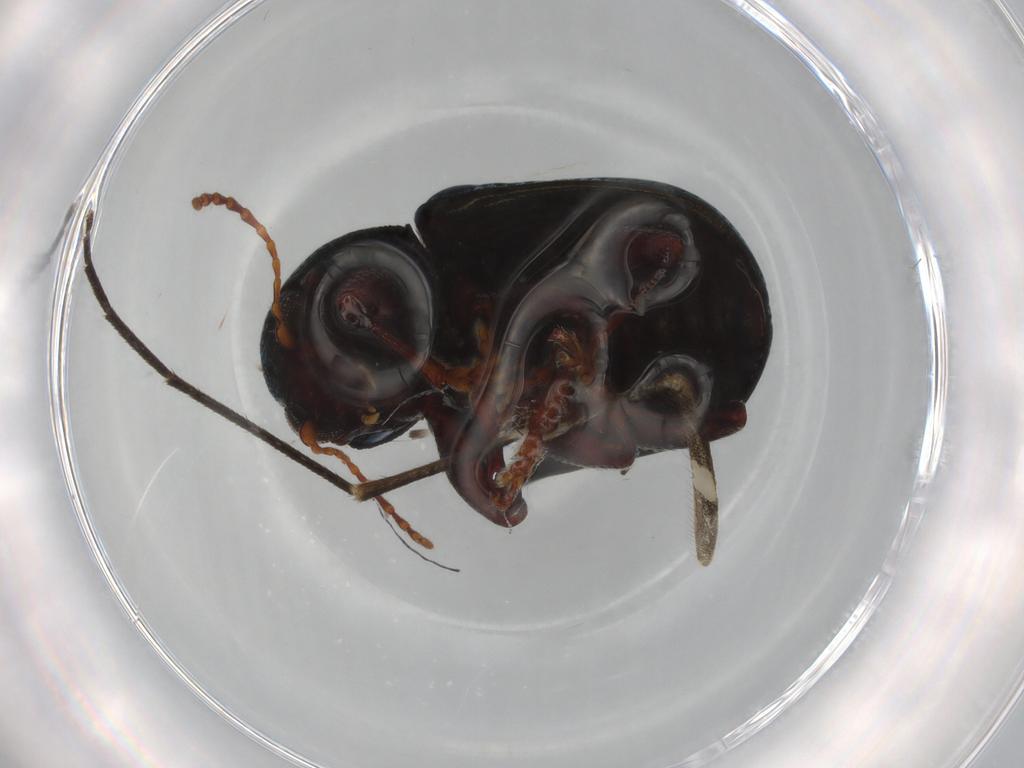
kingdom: Animalia
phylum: Arthropoda
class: Insecta
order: Coleoptera
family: Chrysomelidae
